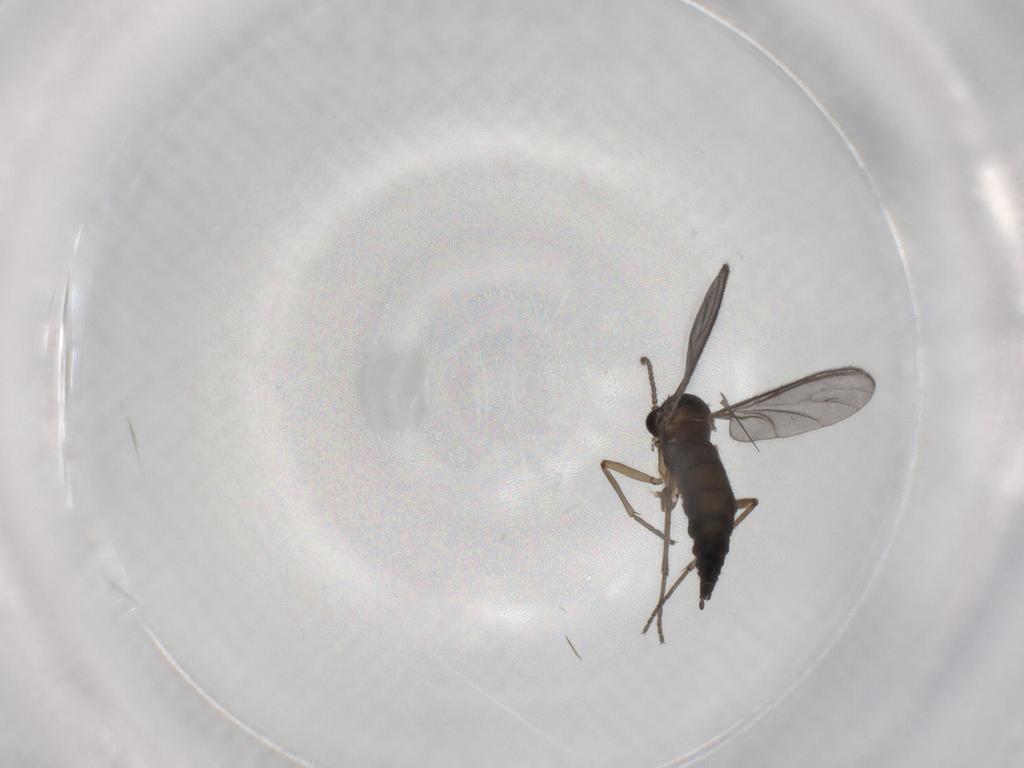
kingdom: Animalia
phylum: Arthropoda
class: Insecta
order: Diptera
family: Sciaridae
